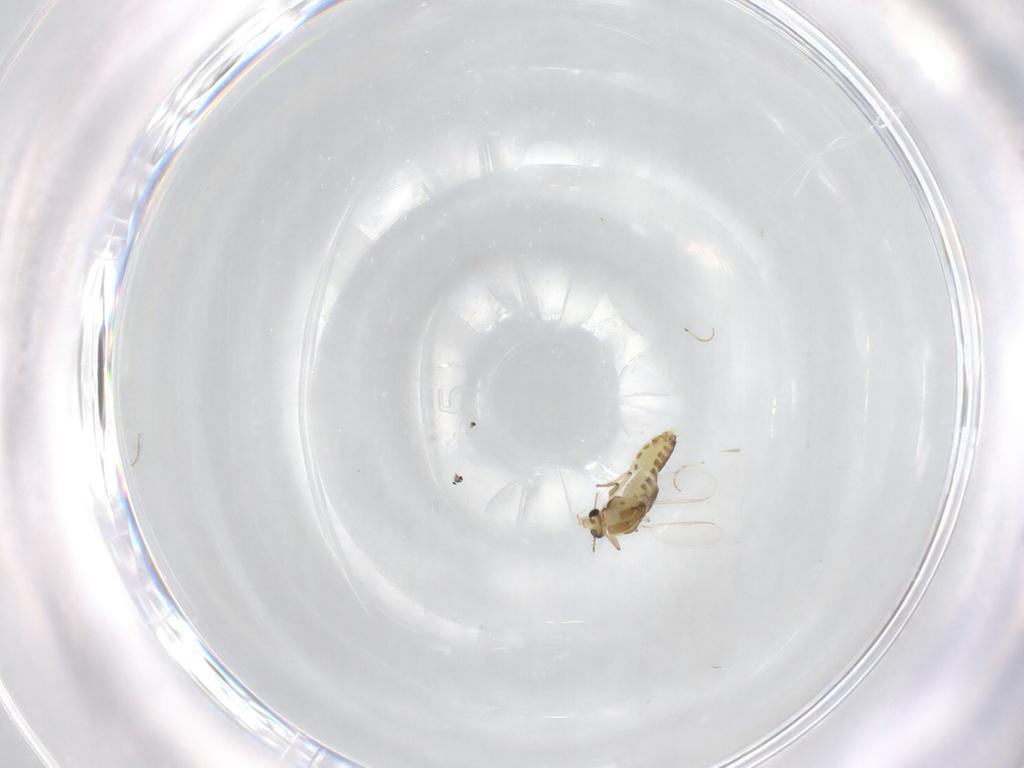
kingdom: Animalia
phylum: Arthropoda
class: Insecta
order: Diptera
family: Chironomidae
